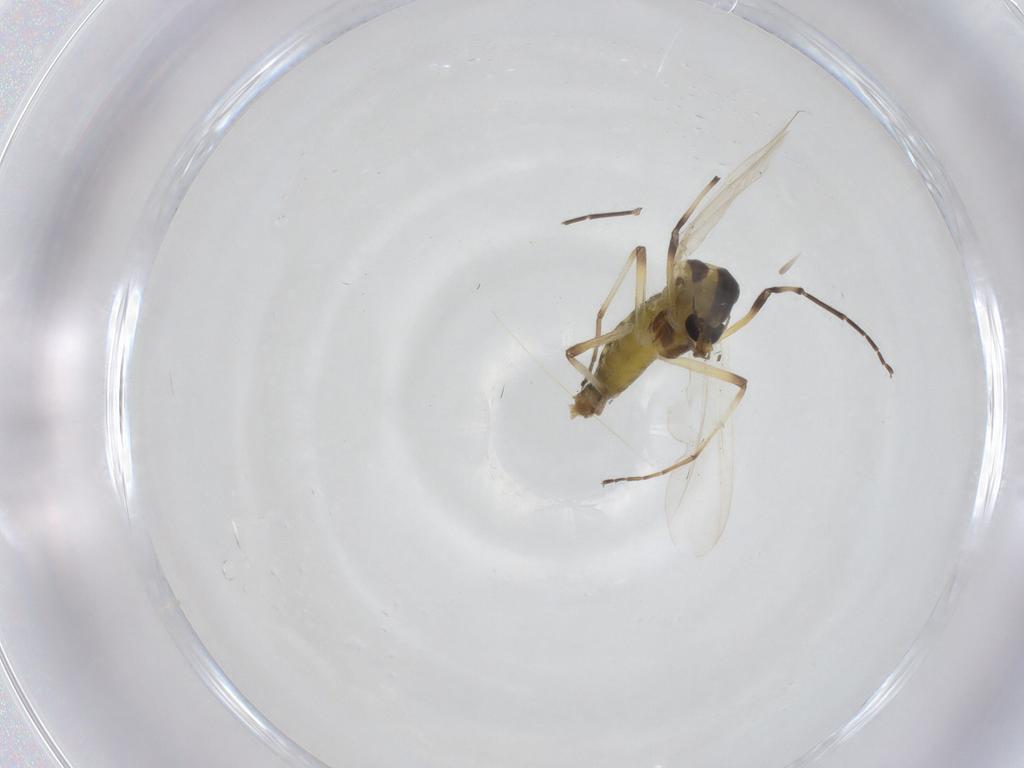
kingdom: Animalia
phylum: Arthropoda
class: Insecta
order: Diptera
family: Chironomidae
